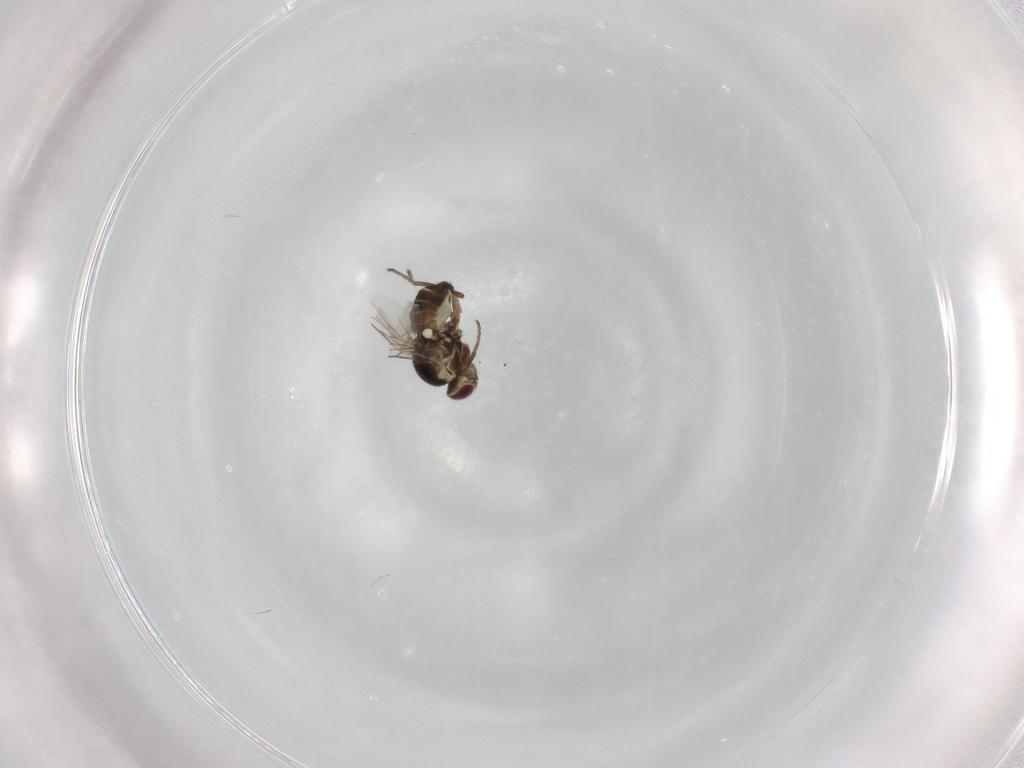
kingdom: Animalia
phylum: Arthropoda
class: Insecta
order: Diptera
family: Agromyzidae
